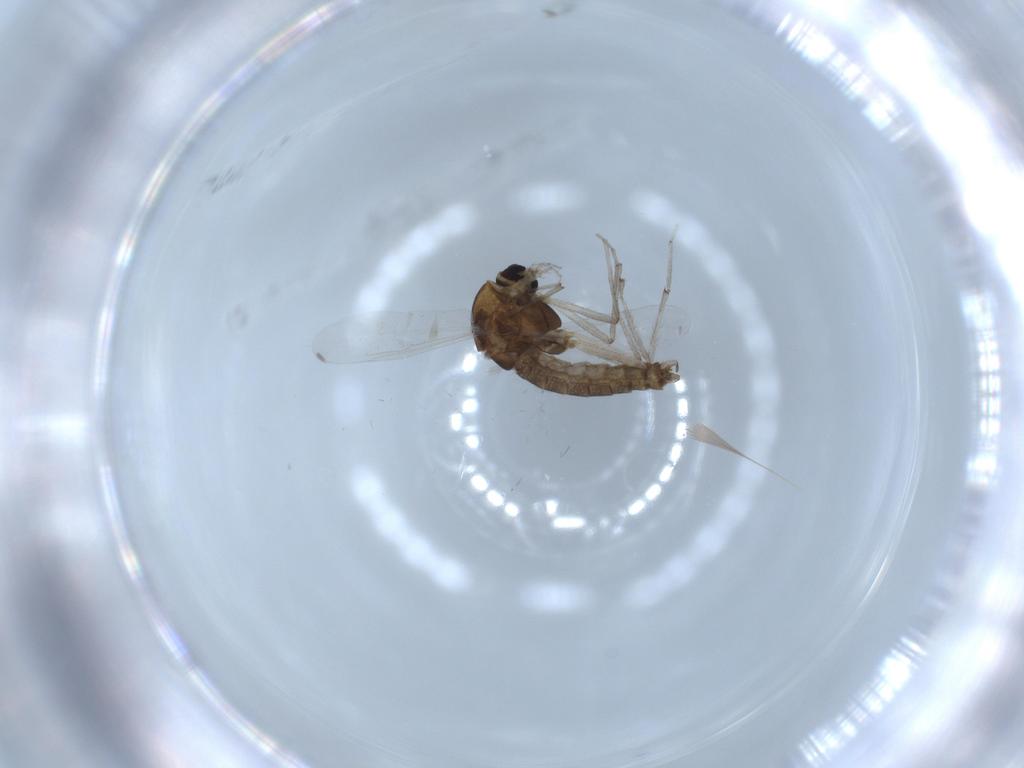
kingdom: Animalia
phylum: Arthropoda
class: Insecta
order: Diptera
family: Chironomidae
